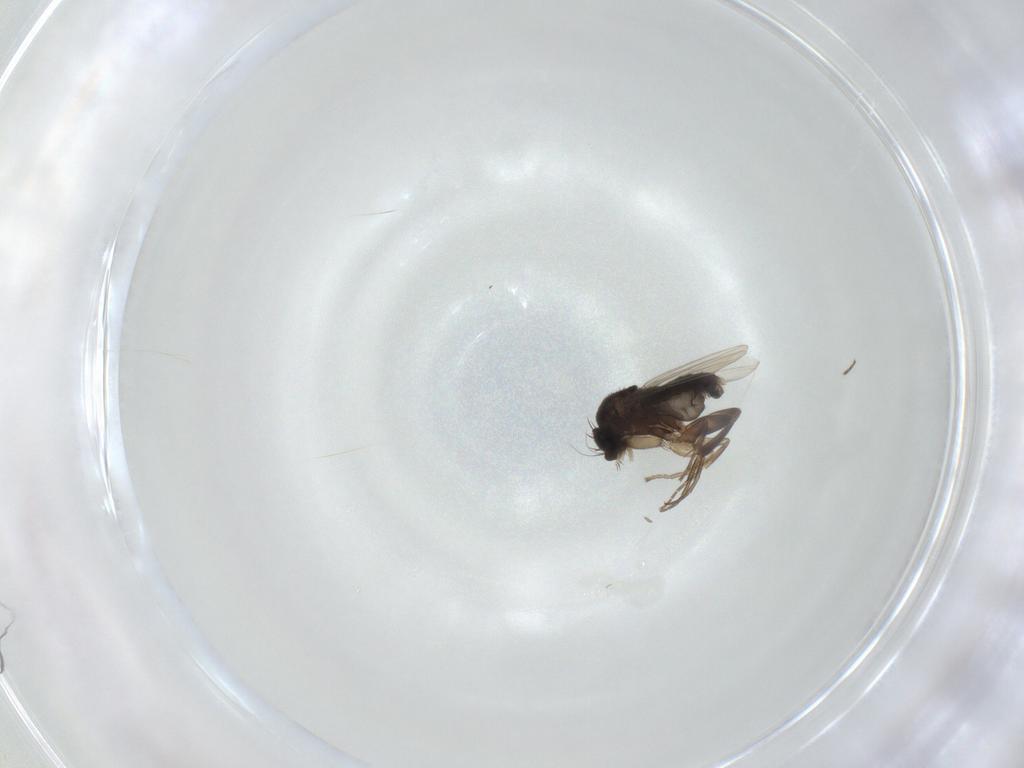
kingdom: Animalia
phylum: Arthropoda
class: Insecta
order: Diptera
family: Phoridae
